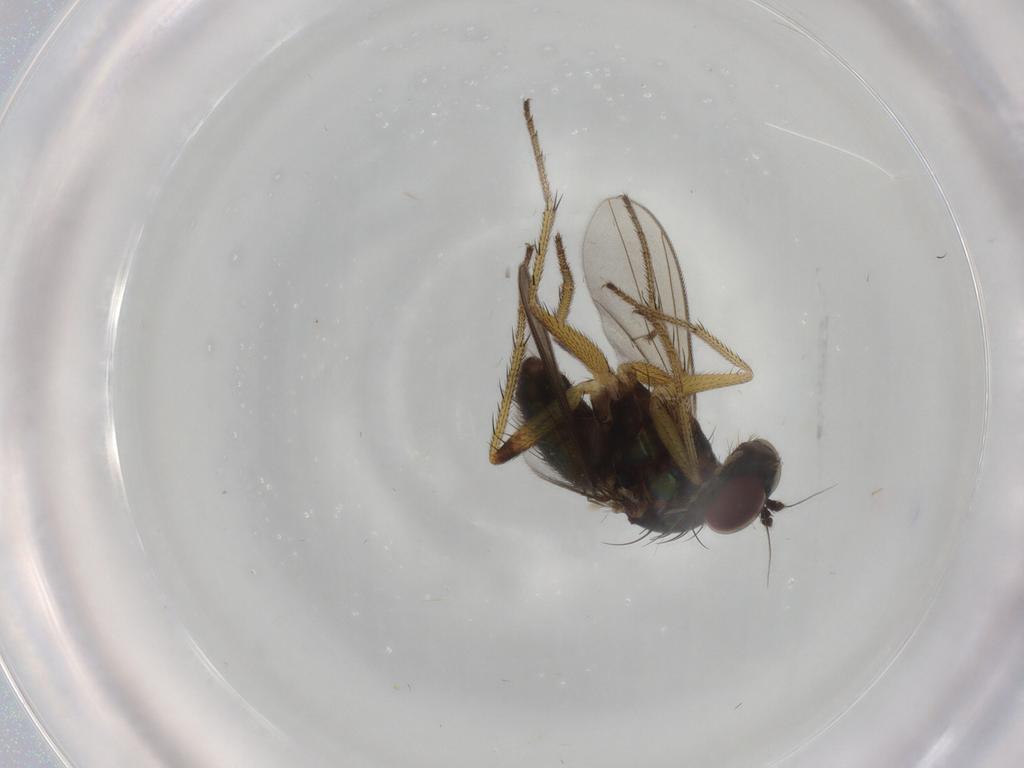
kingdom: Animalia
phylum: Arthropoda
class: Insecta
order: Diptera
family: Dolichopodidae
